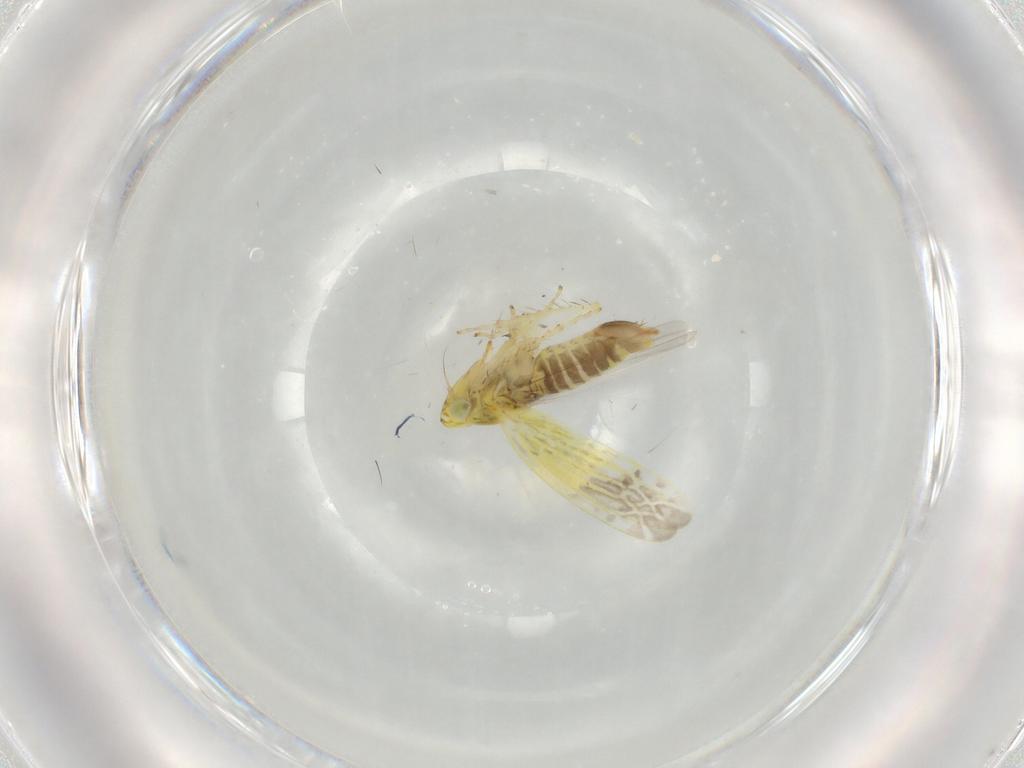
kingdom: Animalia
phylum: Arthropoda
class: Insecta
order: Hemiptera
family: Cicadellidae
